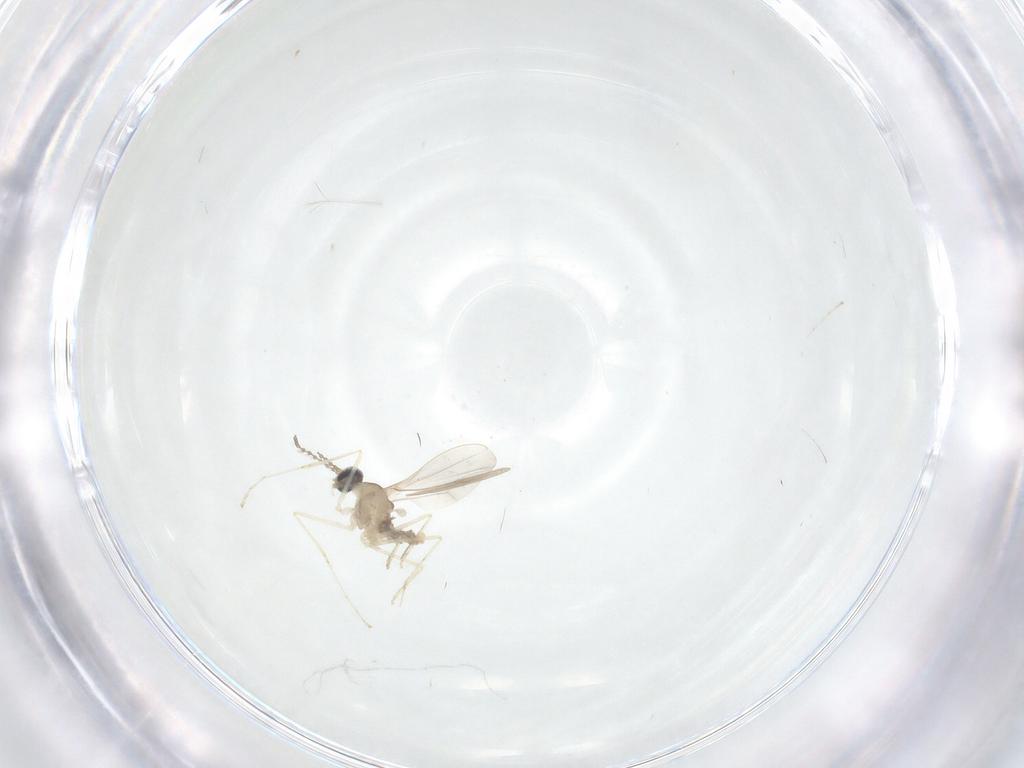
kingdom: Animalia
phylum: Arthropoda
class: Insecta
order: Diptera
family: Cecidomyiidae
